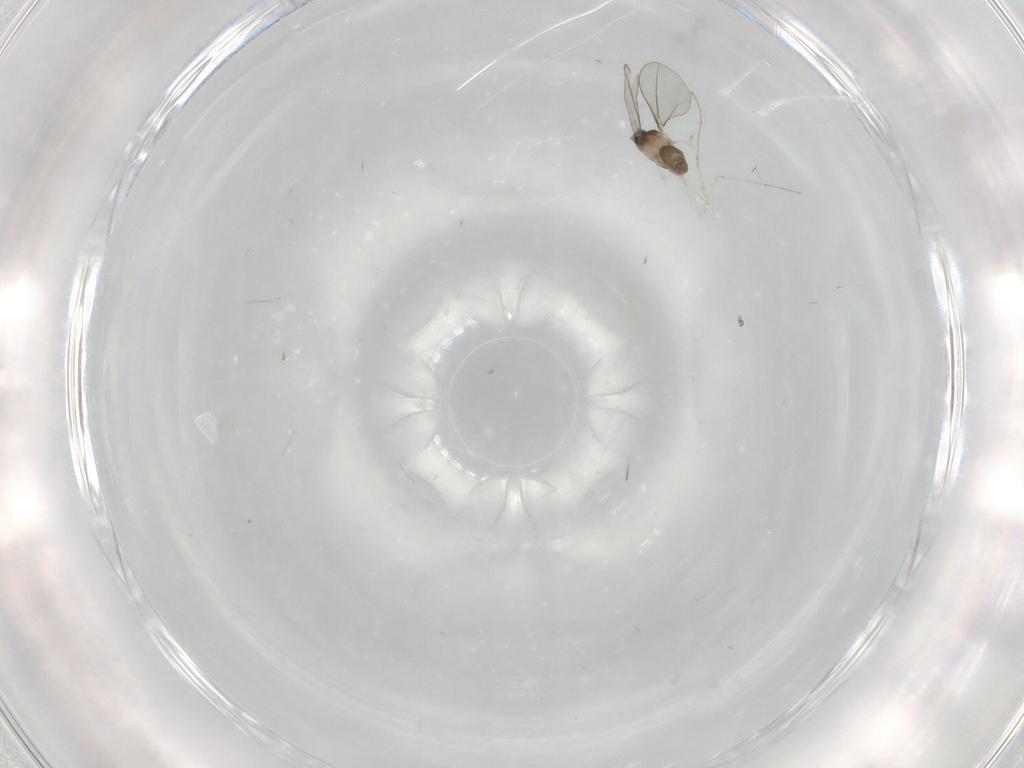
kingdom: Animalia
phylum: Arthropoda
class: Insecta
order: Diptera
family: Cecidomyiidae
